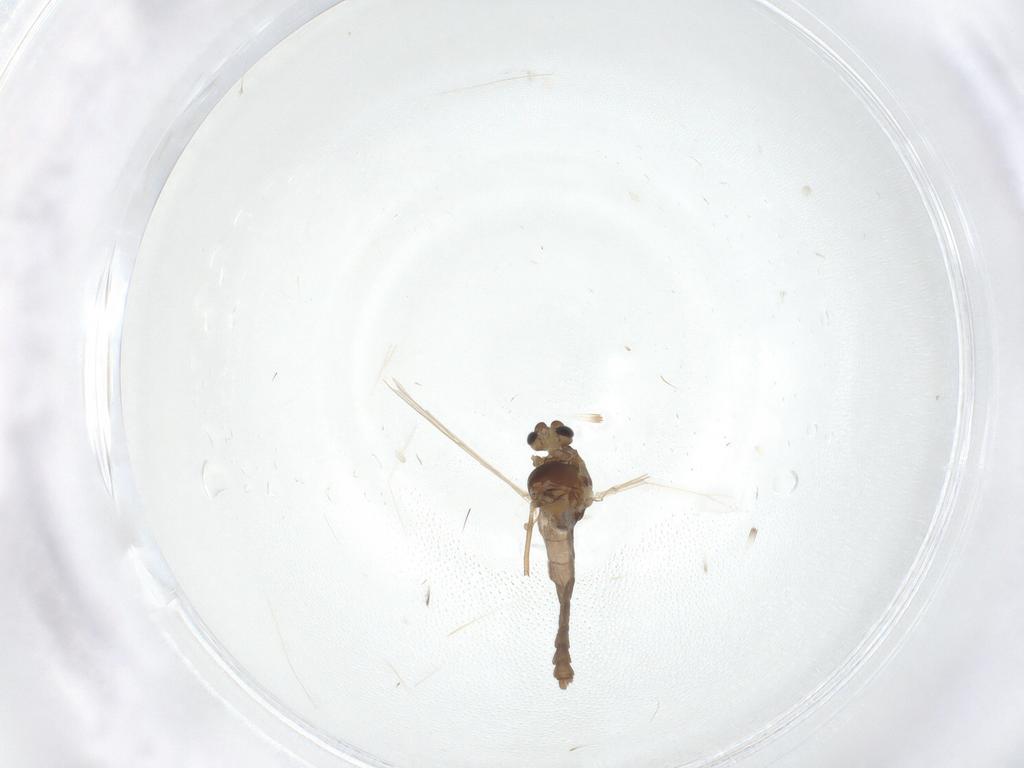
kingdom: Animalia
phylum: Arthropoda
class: Insecta
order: Diptera
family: Chironomidae
